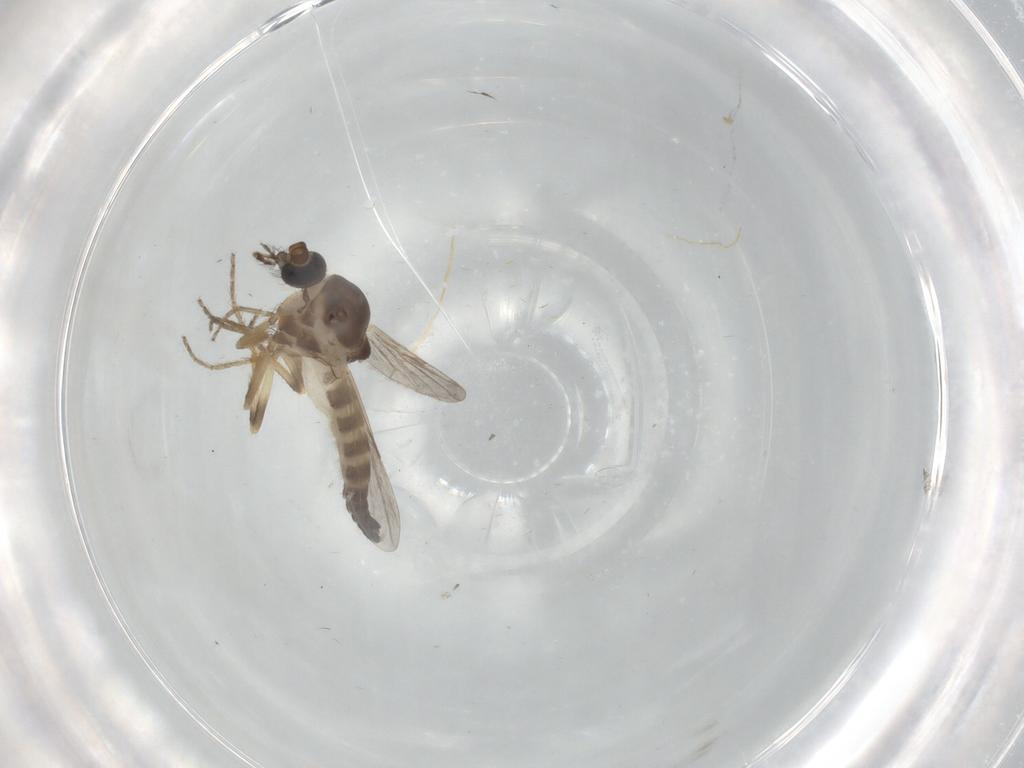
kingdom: Animalia
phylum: Arthropoda
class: Insecta
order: Diptera
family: Ceratopogonidae
